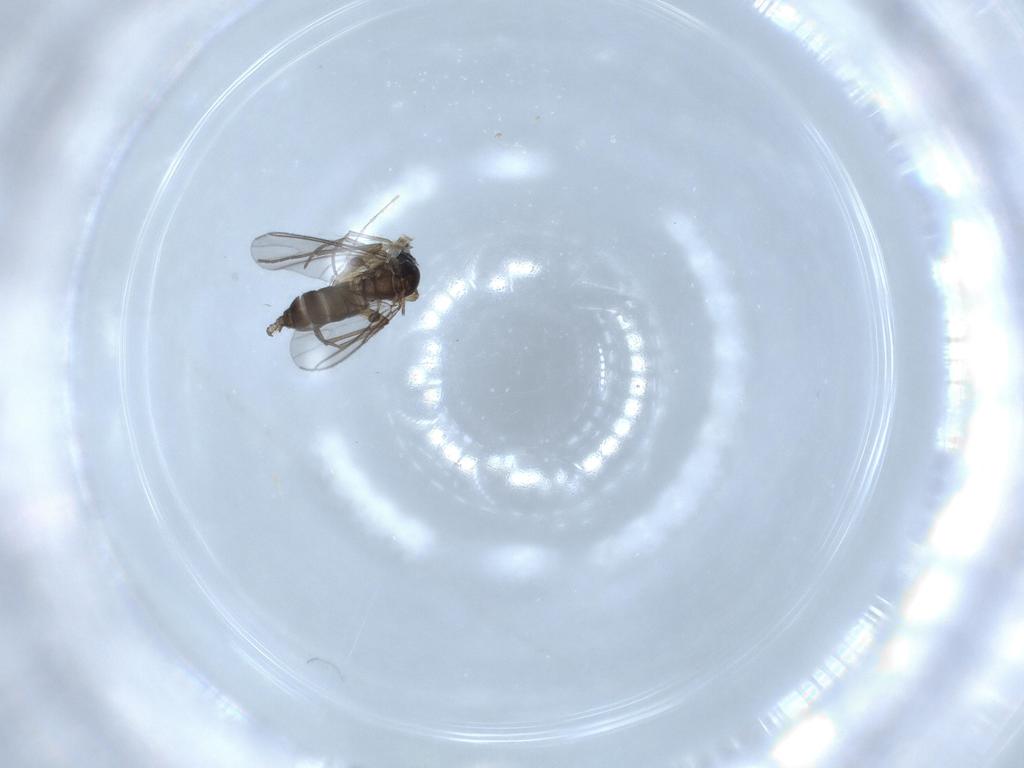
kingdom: Animalia
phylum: Arthropoda
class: Insecta
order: Diptera
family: Sciaridae
